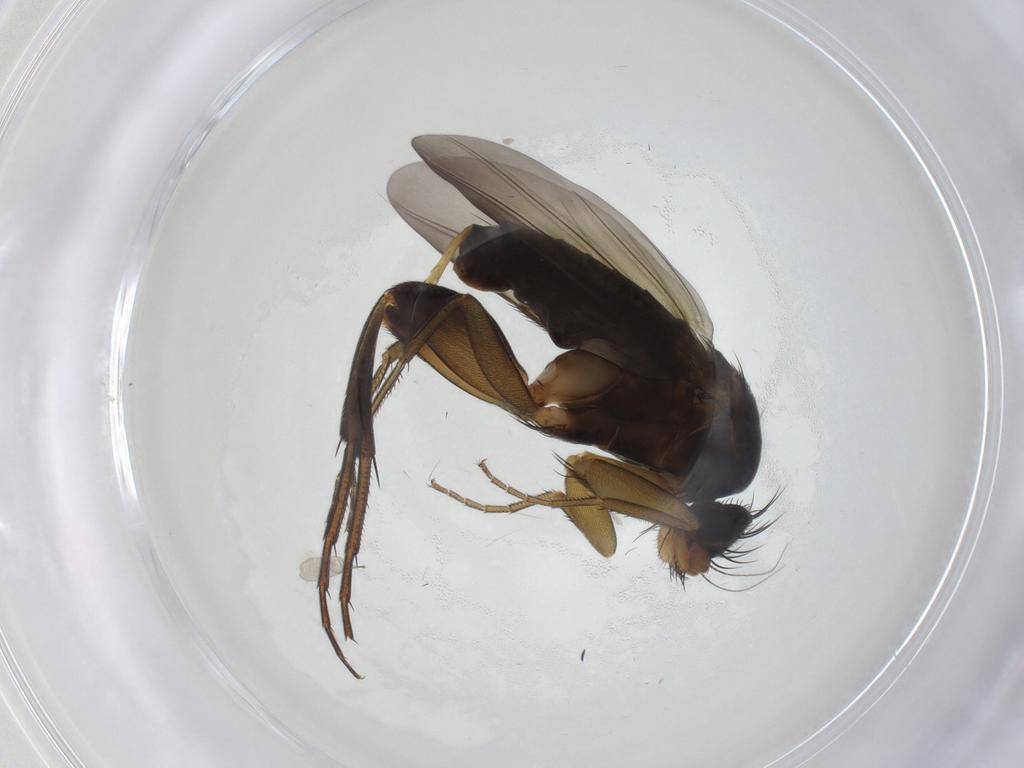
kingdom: Animalia
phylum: Arthropoda
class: Insecta
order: Diptera
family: Phoridae
